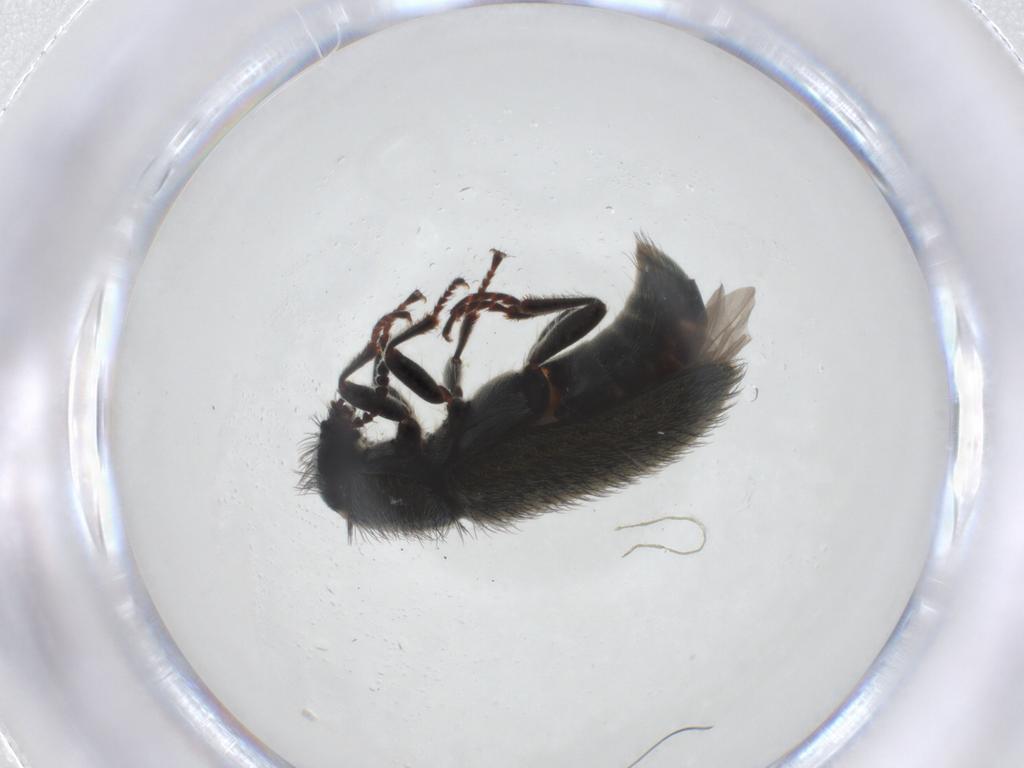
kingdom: Animalia
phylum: Arthropoda
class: Insecta
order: Coleoptera
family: Melyridae
